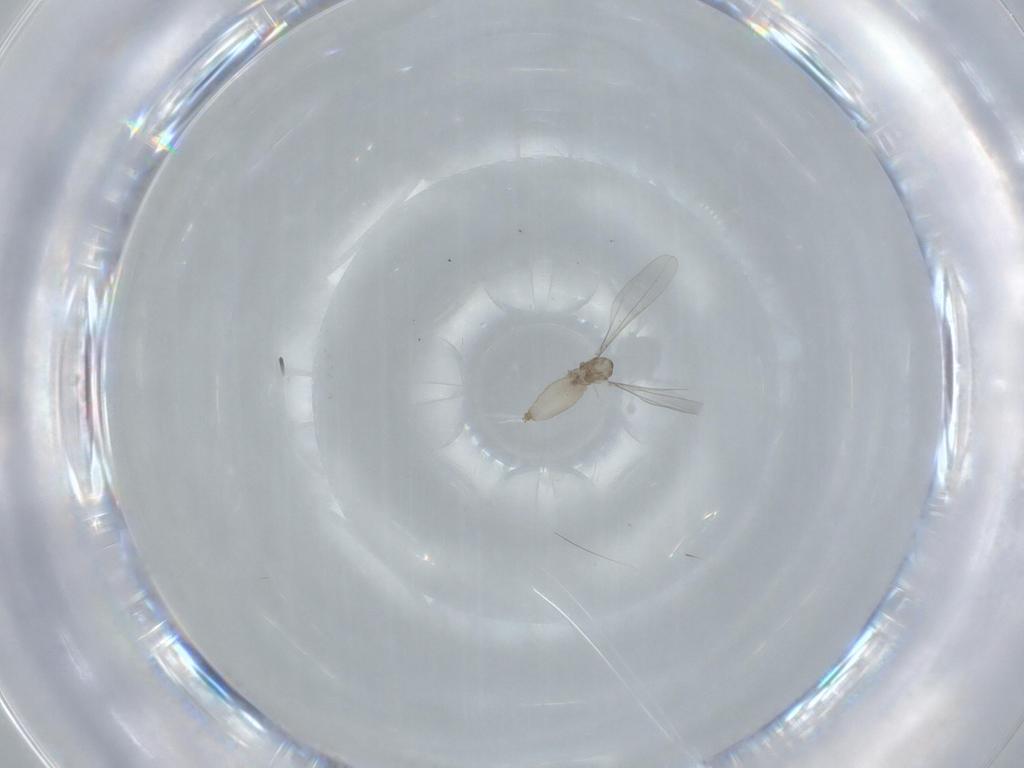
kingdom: Animalia
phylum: Arthropoda
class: Insecta
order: Diptera
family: Cecidomyiidae
